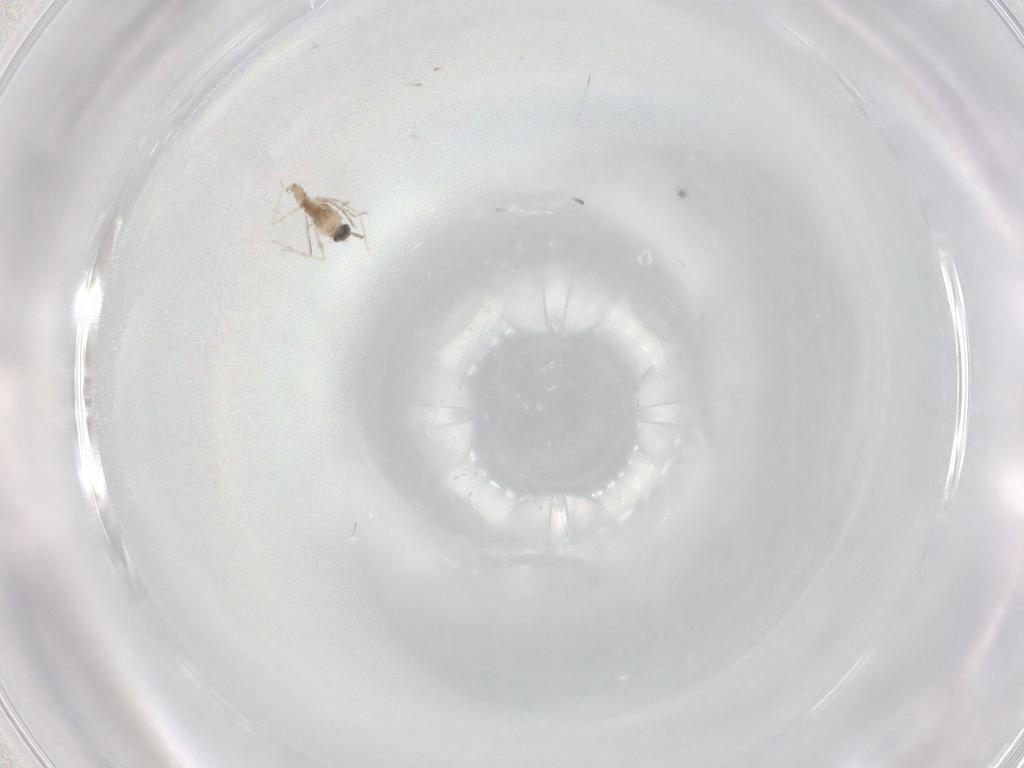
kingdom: Animalia
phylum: Arthropoda
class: Insecta
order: Diptera
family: Cecidomyiidae
